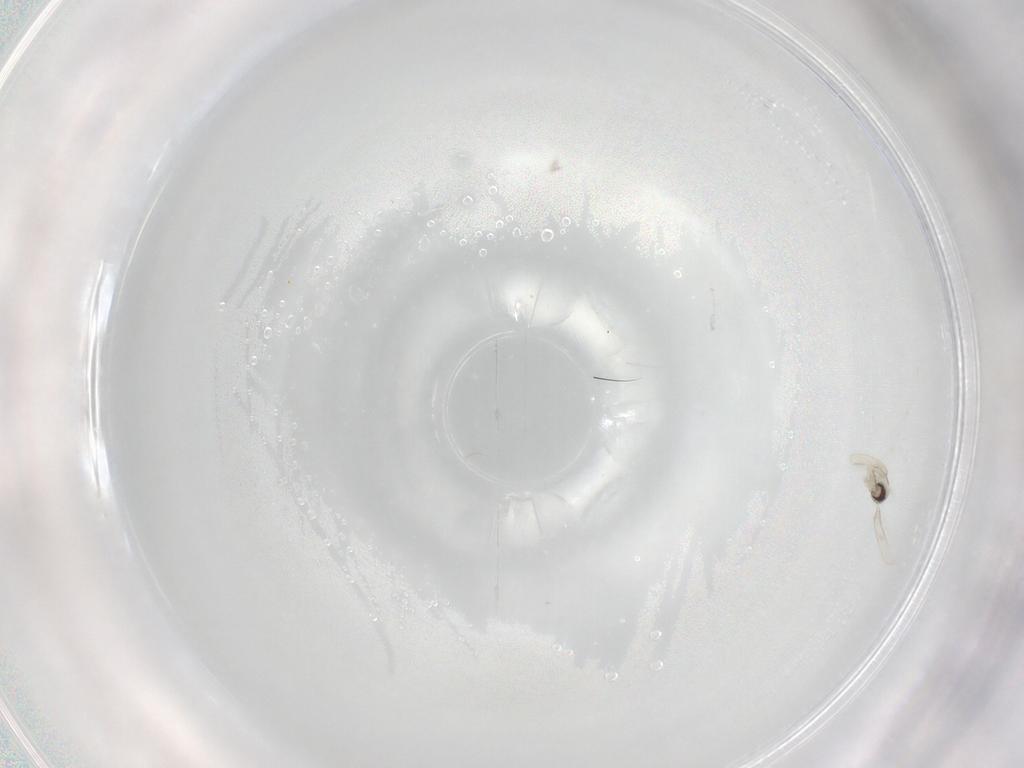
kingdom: Animalia
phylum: Arthropoda
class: Insecta
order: Diptera
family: Cecidomyiidae
